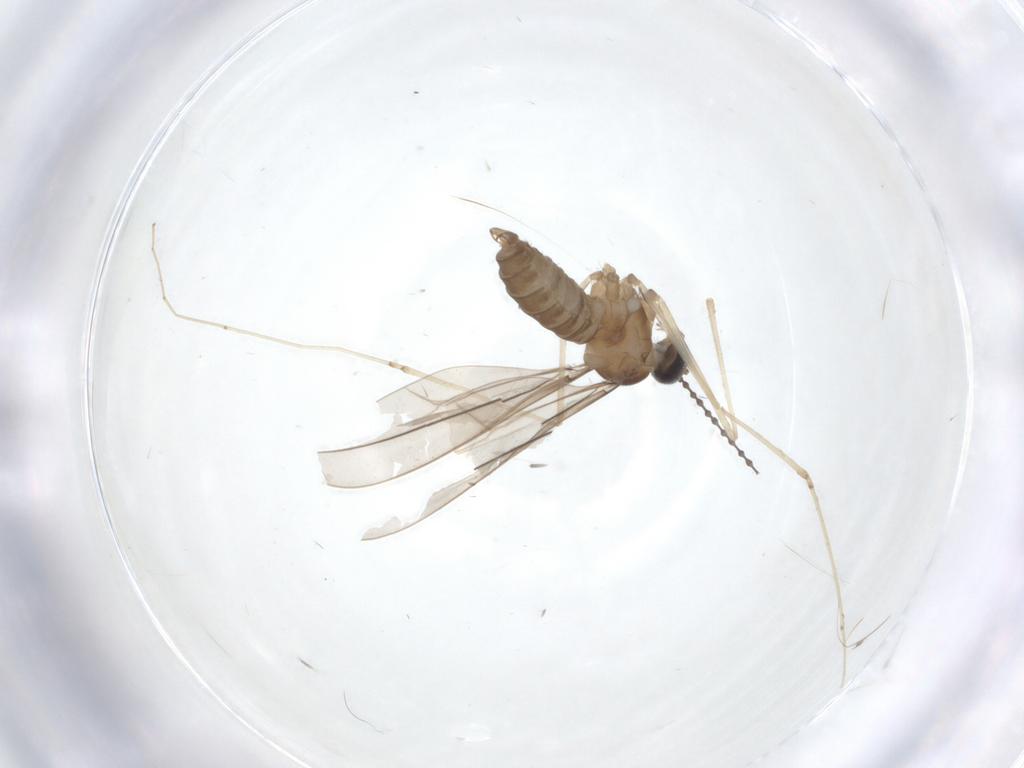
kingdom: Animalia
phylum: Arthropoda
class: Insecta
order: Diptera
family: Cecidomyiidae
